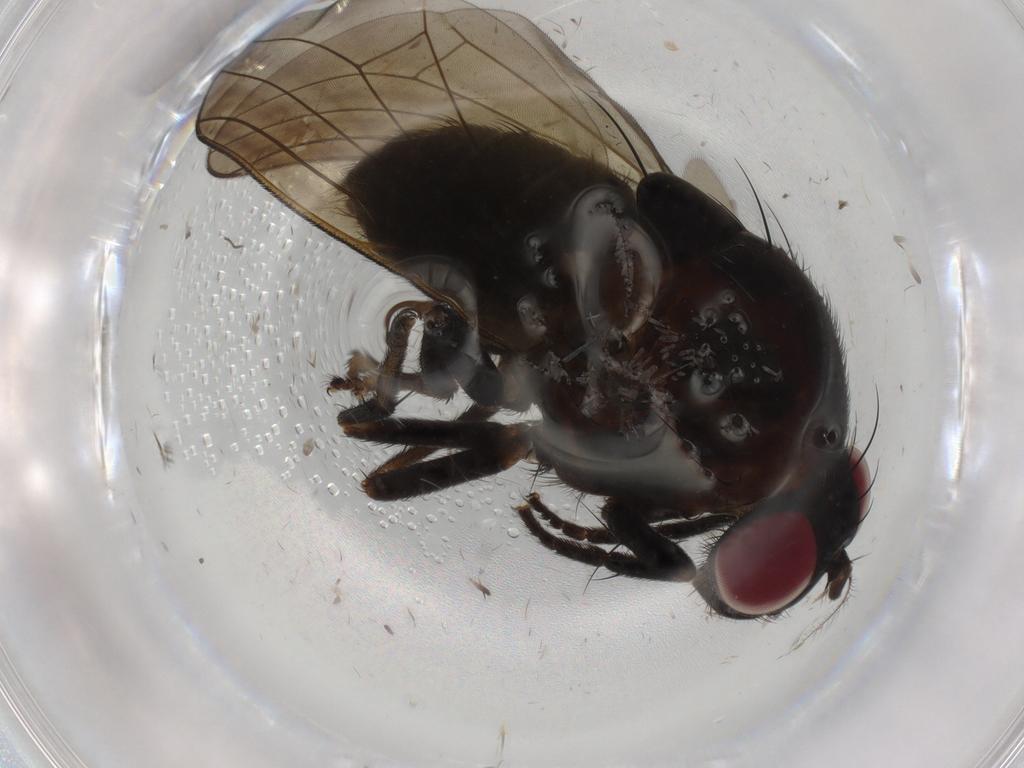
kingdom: Animalia
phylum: Arthropoda
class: Insecta
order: Diptera
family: Lauxaniidae
